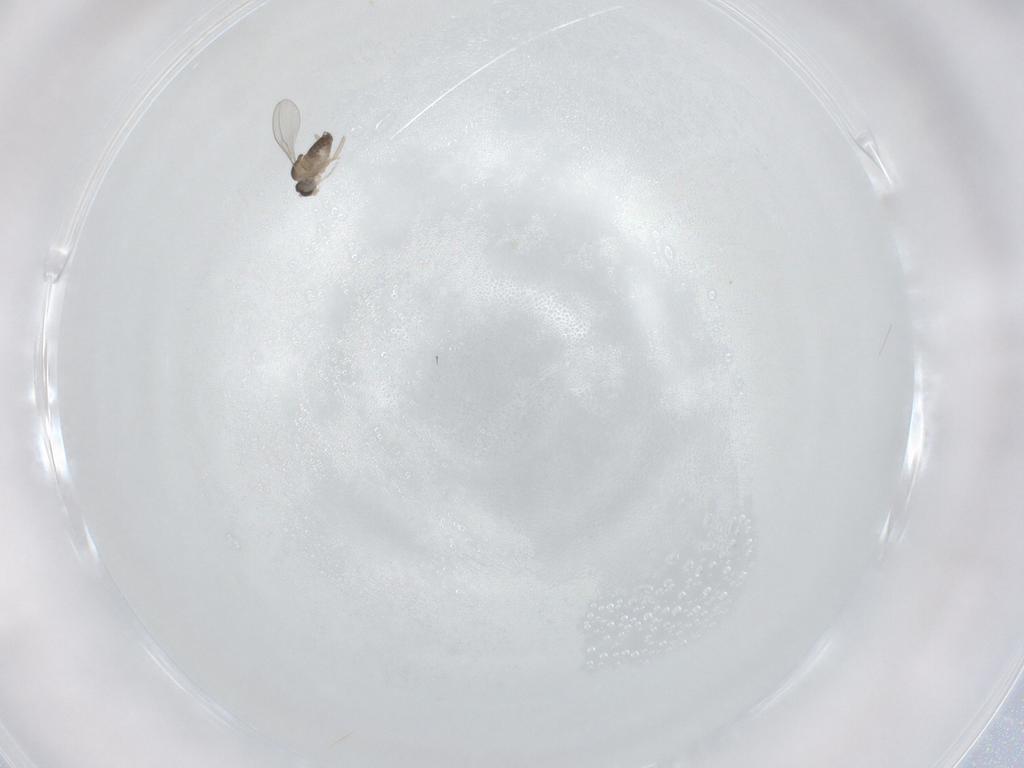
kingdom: Animalia
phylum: Arthropoda
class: Insecta
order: Diptera
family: Cecidomyiidae
